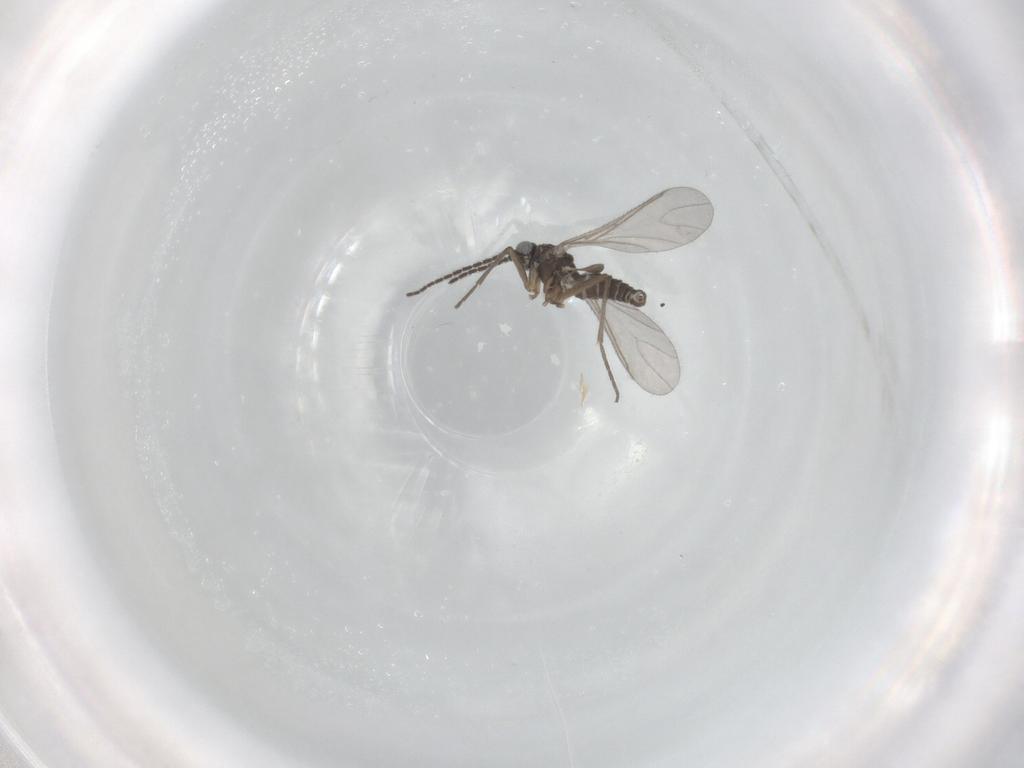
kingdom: Animalia
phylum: Arthropoda
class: Insecta
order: Diptera
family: Sciaridae
